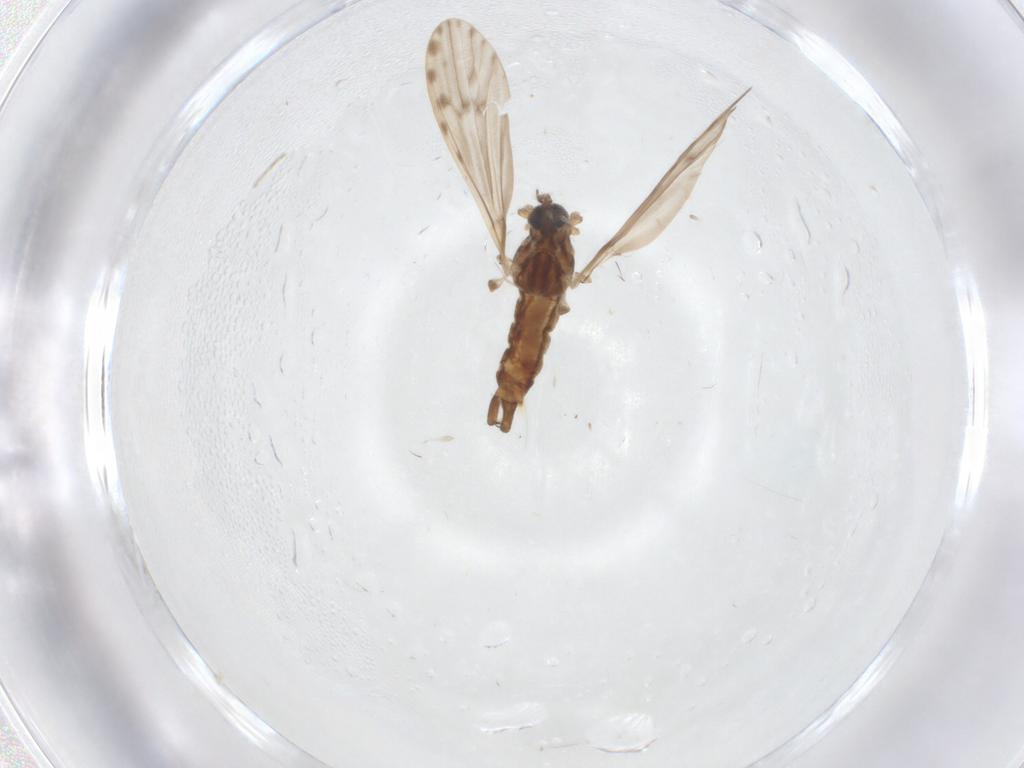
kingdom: Animalia
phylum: Arthropoda
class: Insecta
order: Diptera
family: Limoniidae
